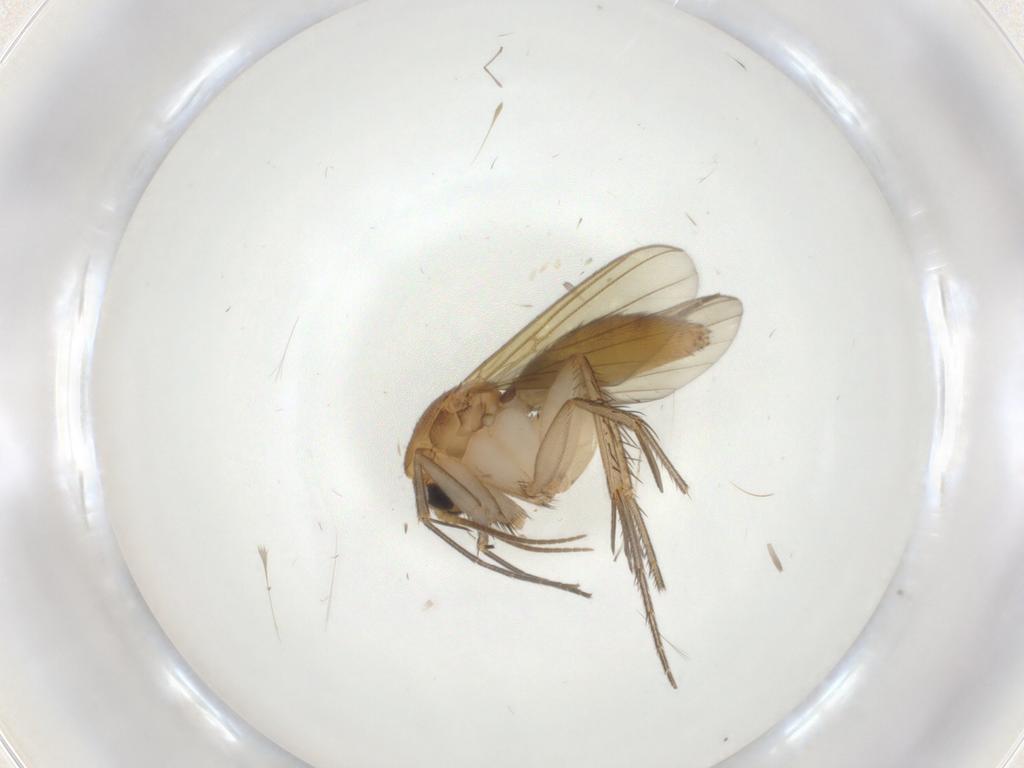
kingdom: Animalia
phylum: Arthropoda
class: Insecta
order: Diptera
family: Mycetophilidae
